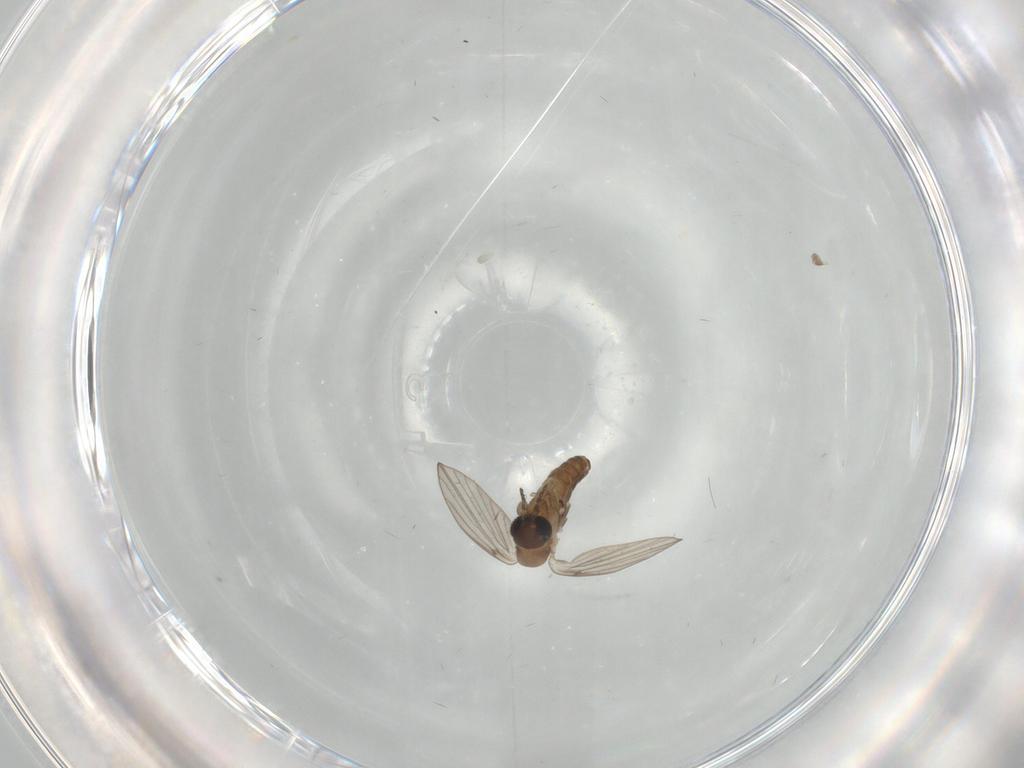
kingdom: Animalia
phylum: Arthropoda
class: Insecta
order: Diptera
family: Psychodidae
